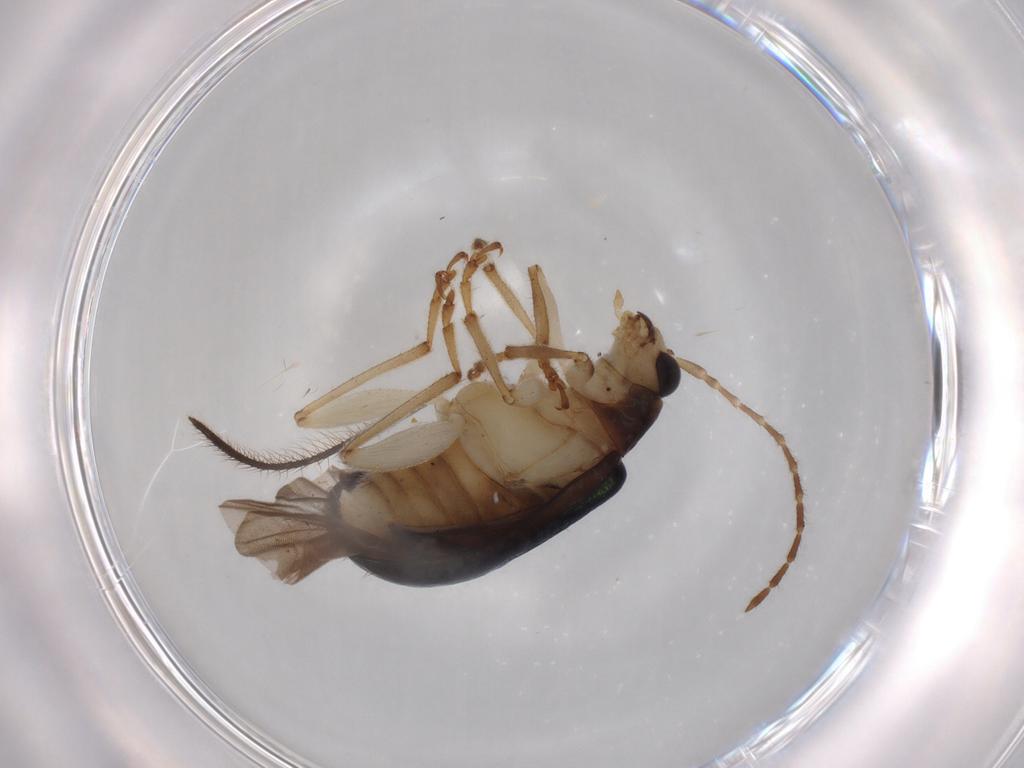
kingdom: Animalia
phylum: Arthropoda
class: Insecta
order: Coleoptera
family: Chrysomelidae
